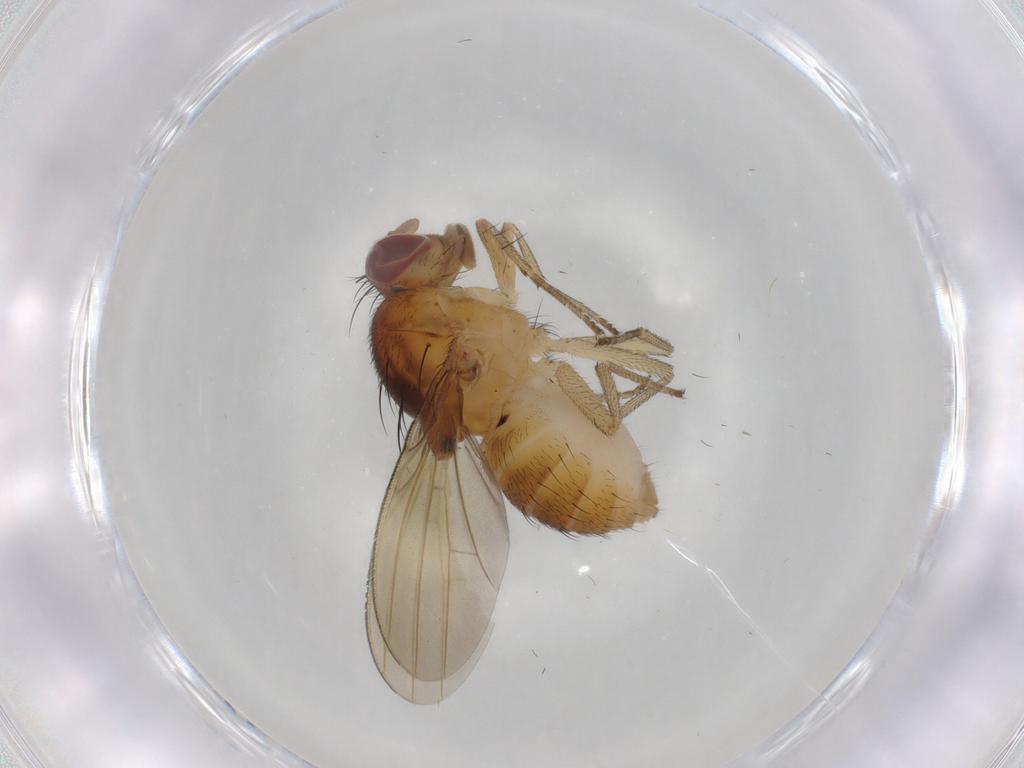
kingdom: Animalia
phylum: Arthropoda
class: Insecta
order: Diptera
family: Lauxaniidae
